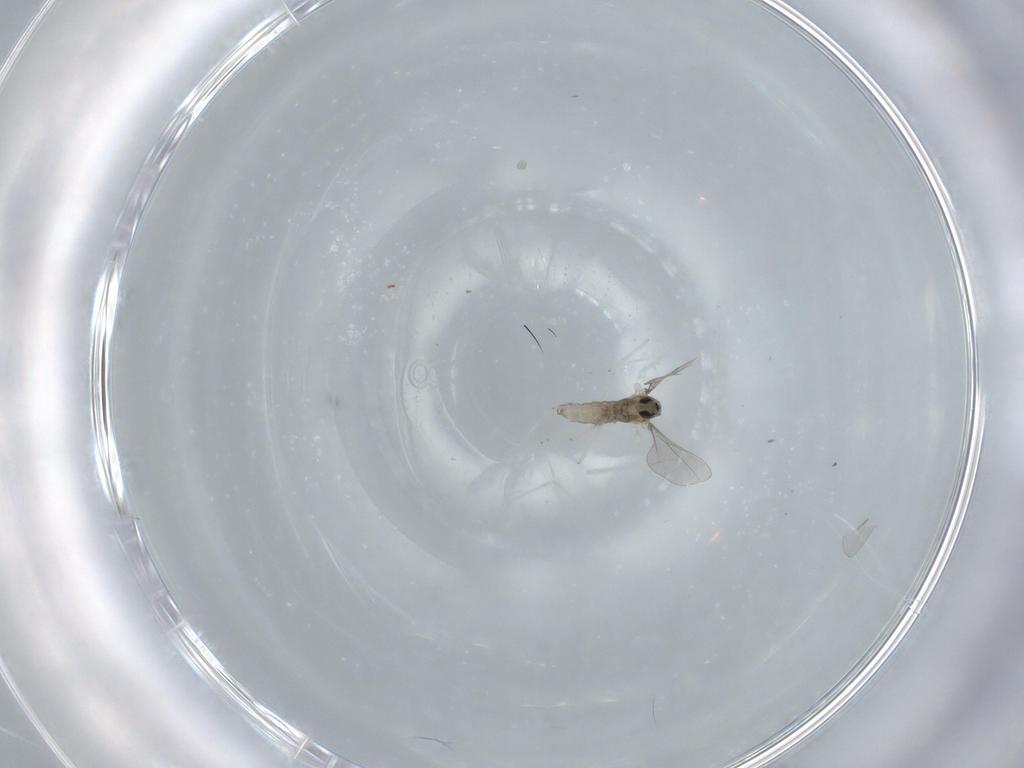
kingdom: Animalia
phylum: Arthropoda
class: Insecta
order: Diptera
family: Cecidomyiidae
